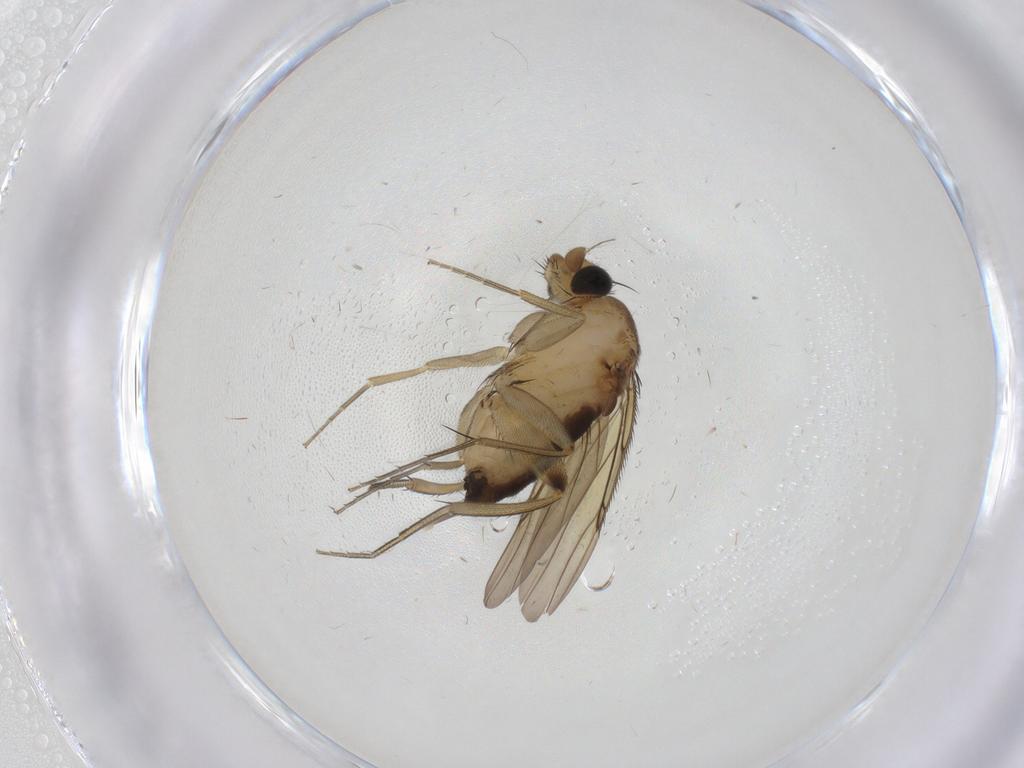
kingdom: Animalia
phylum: Arthropoda
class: Insecta
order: Diptera
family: Phoridae
